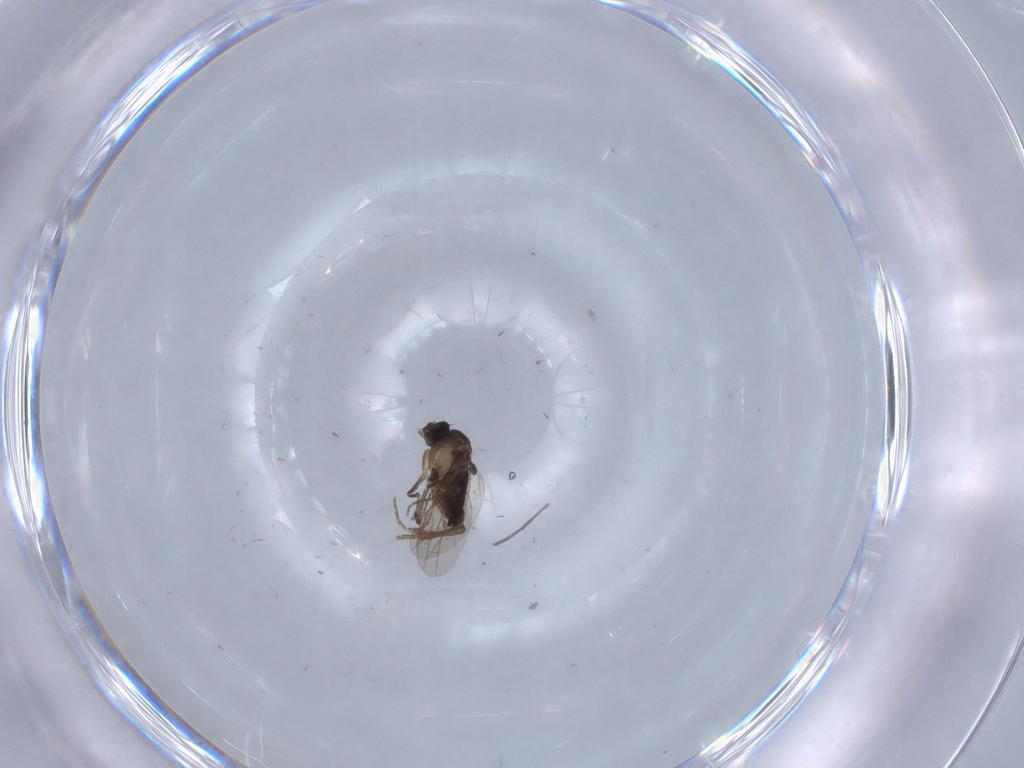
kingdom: Animalia
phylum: Arthropoda
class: Insecta
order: Diptera
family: Phoridae
